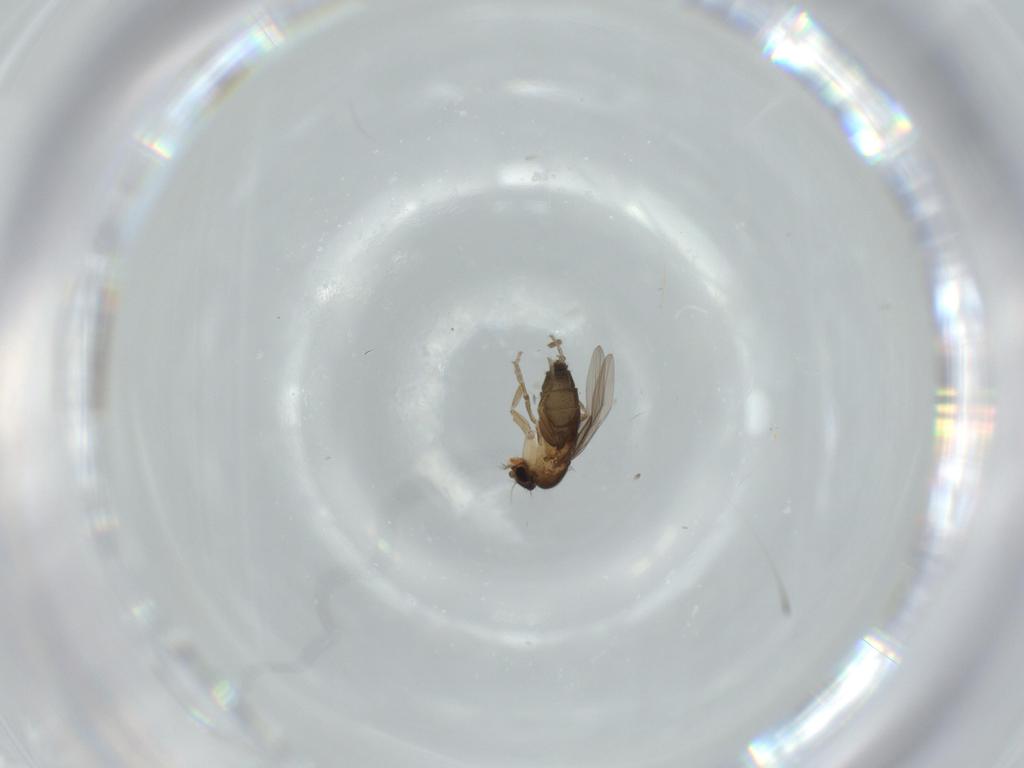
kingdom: Animalia
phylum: Arthropoda
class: Insecta
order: Diptera
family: Phoridae
